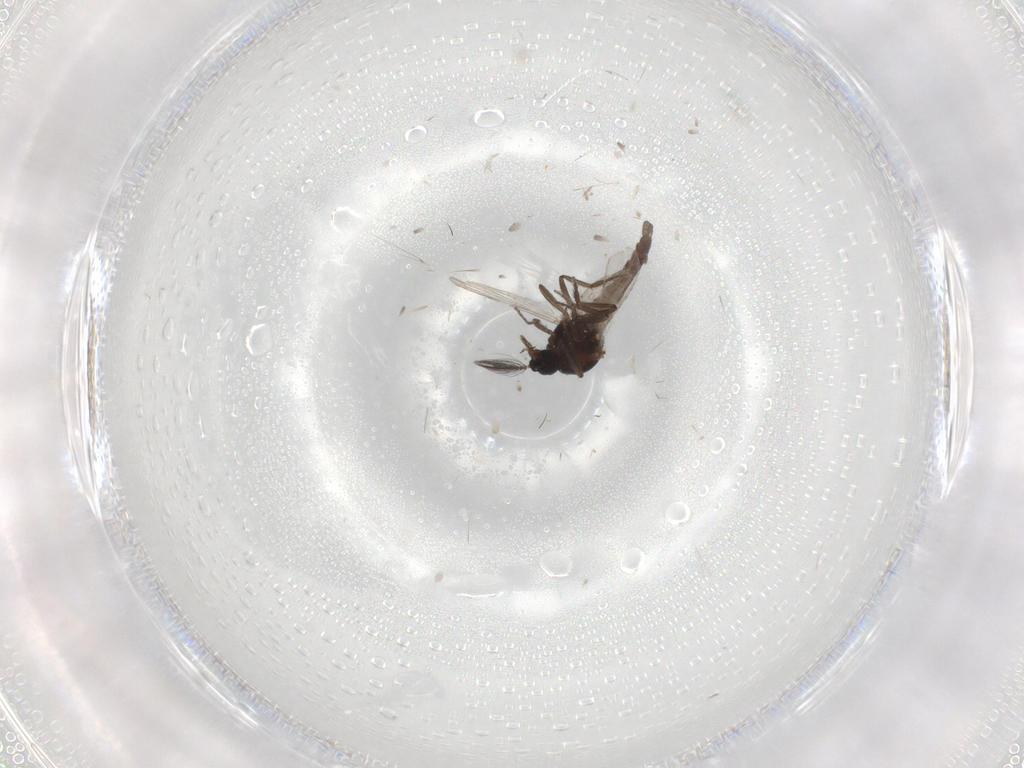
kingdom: Animalia
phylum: Arthropoda
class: Insecta
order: Diptera
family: Ceratopogonidae
